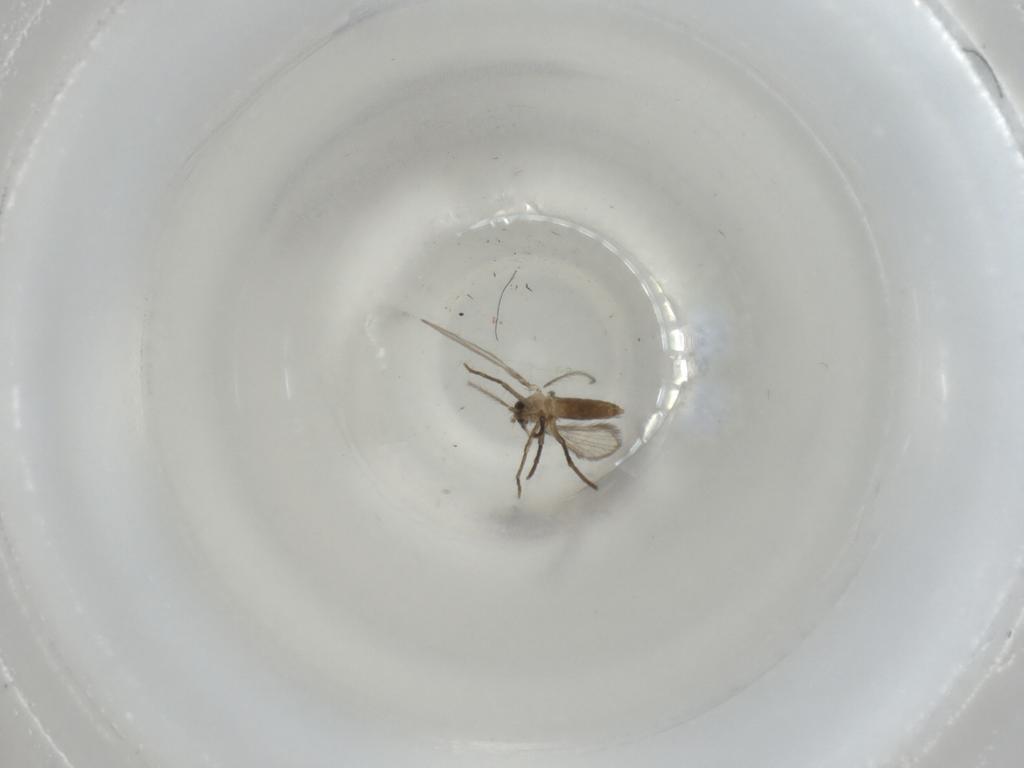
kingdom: Animalia
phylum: Arthropoda
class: Insecta
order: Diptera
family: Psychodidae
